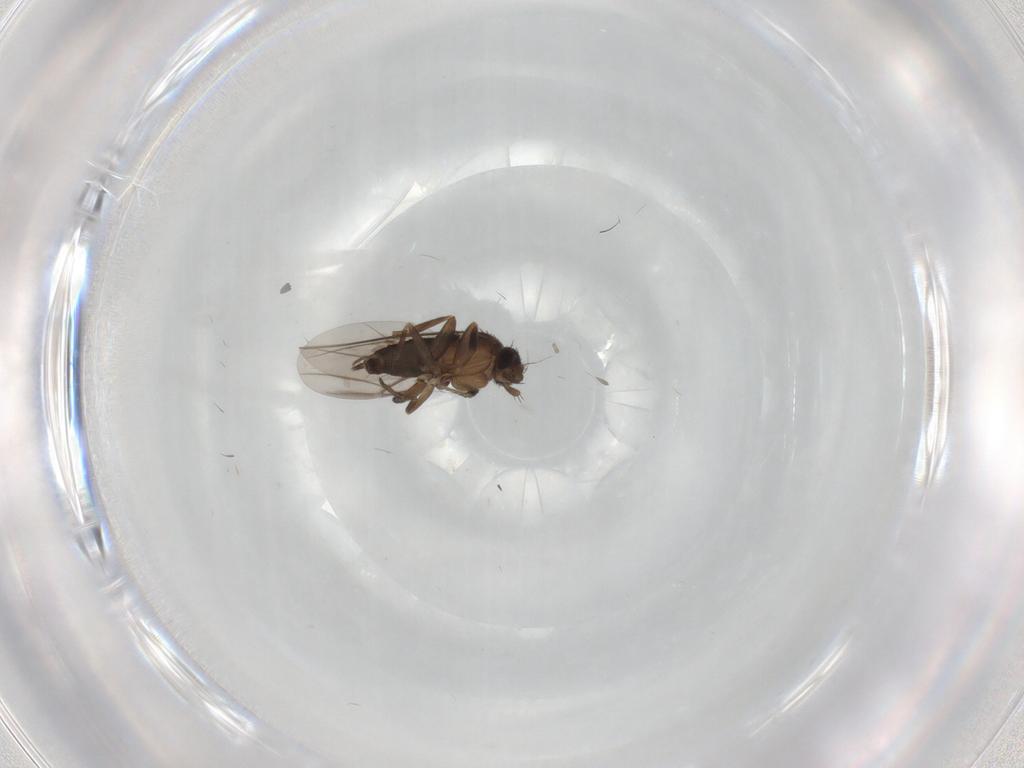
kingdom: Animalia
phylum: Arthropoda
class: Insecta
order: Diptera
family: Phoridae
